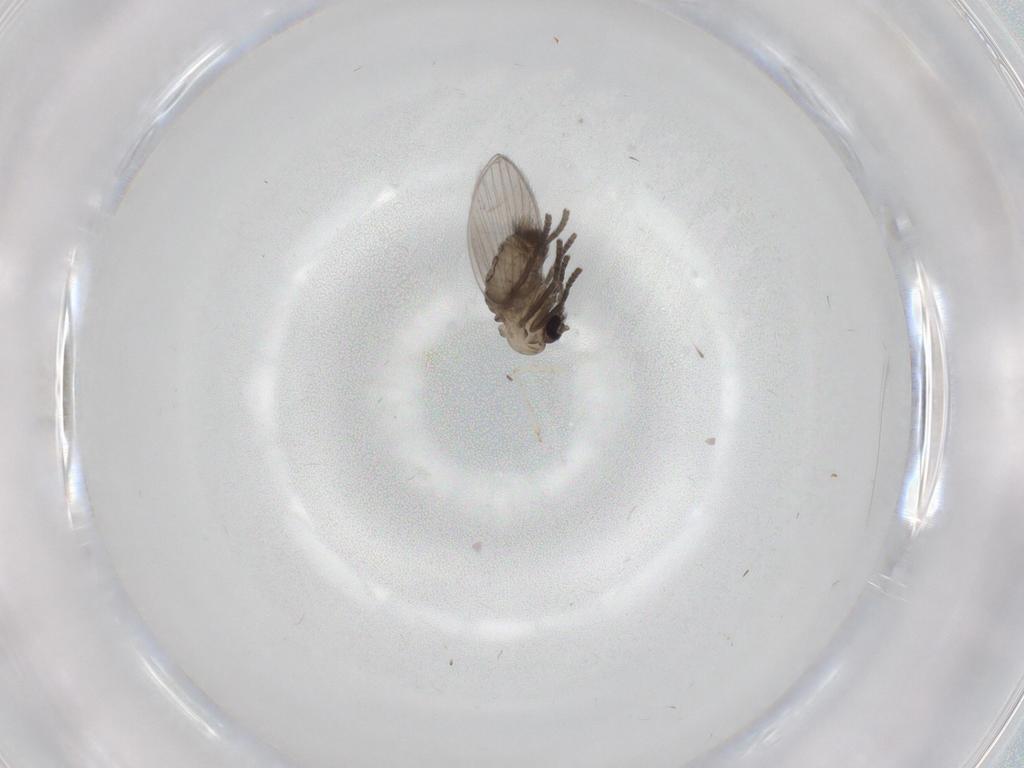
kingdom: Animalia
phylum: Arthropoda
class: Insecta
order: Diptera
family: Psychodidae
